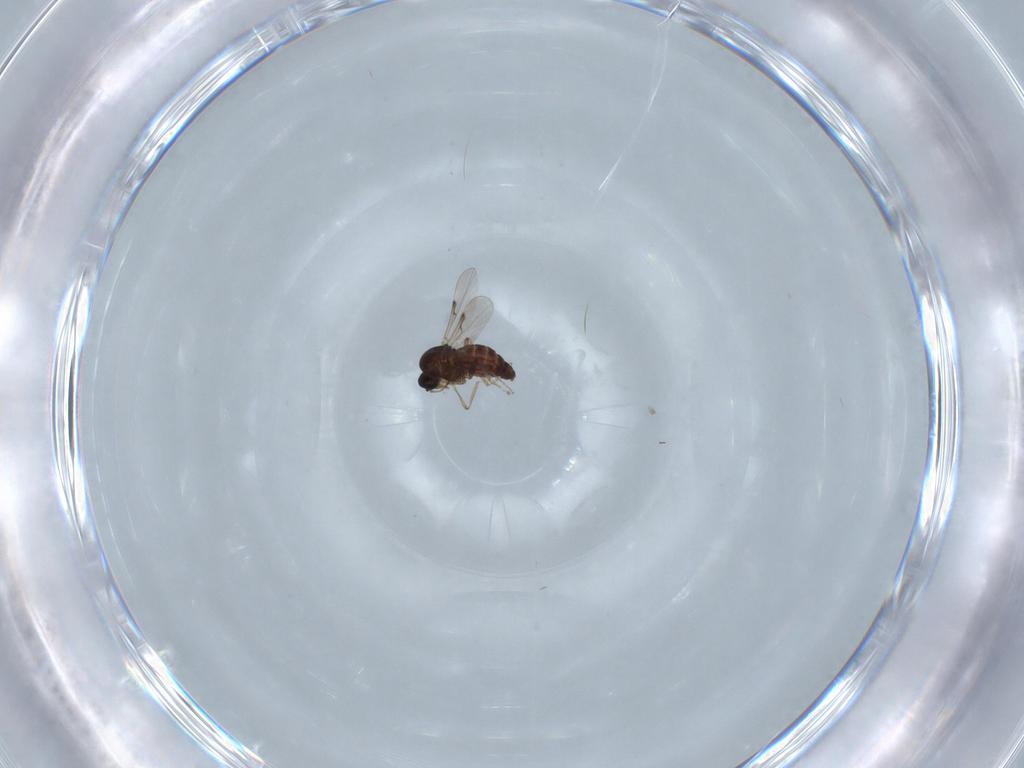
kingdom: Animalia
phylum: Arthropoda
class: Insecta
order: Diptera
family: Ceratopogonidae
